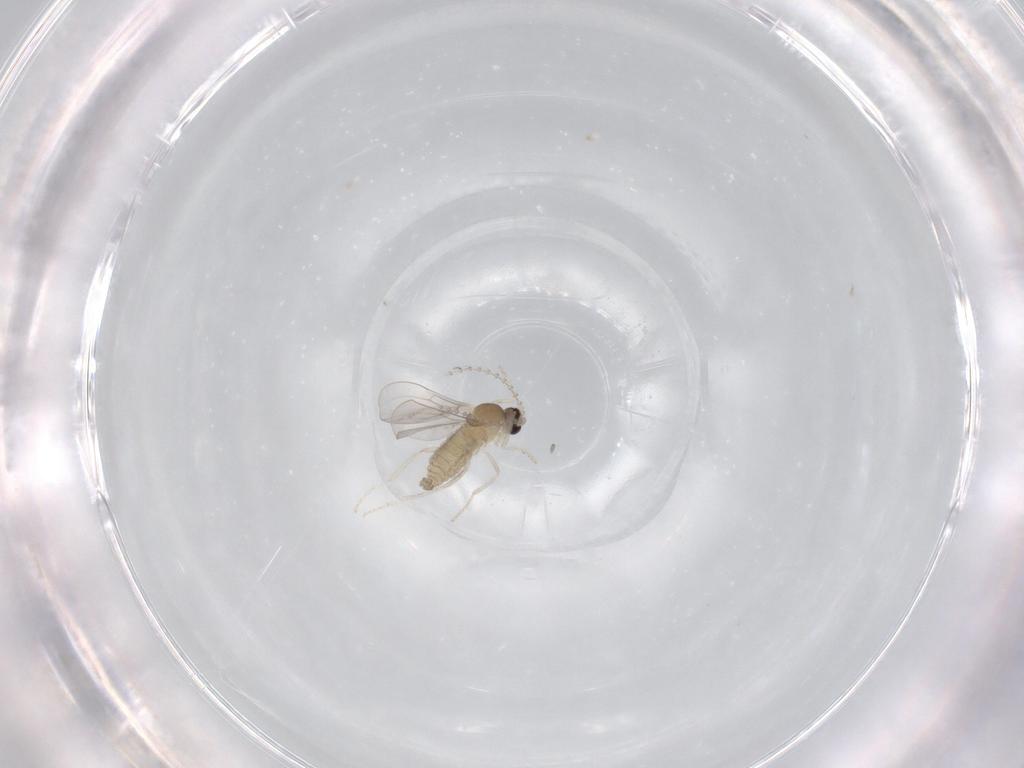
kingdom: Animalia
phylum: Arthropoda
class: Insecta
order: Diptera
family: Cecidomyiidae
